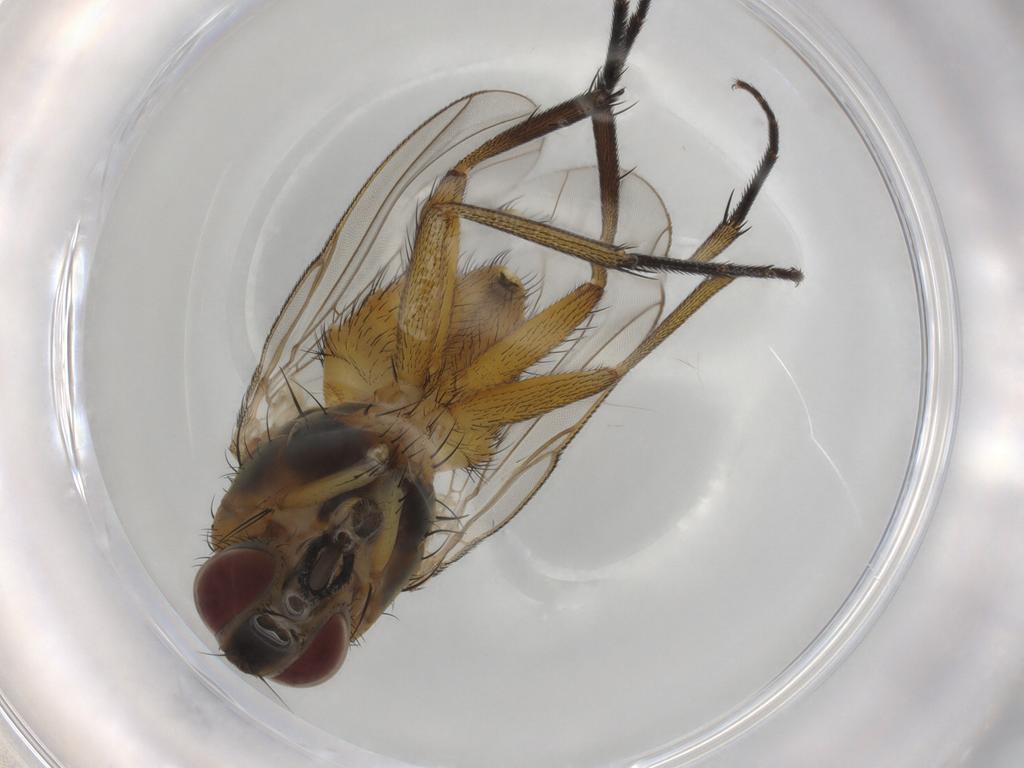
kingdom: Animalia
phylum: Arthropoda
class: Insecta
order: Diptera
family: Muscidae
